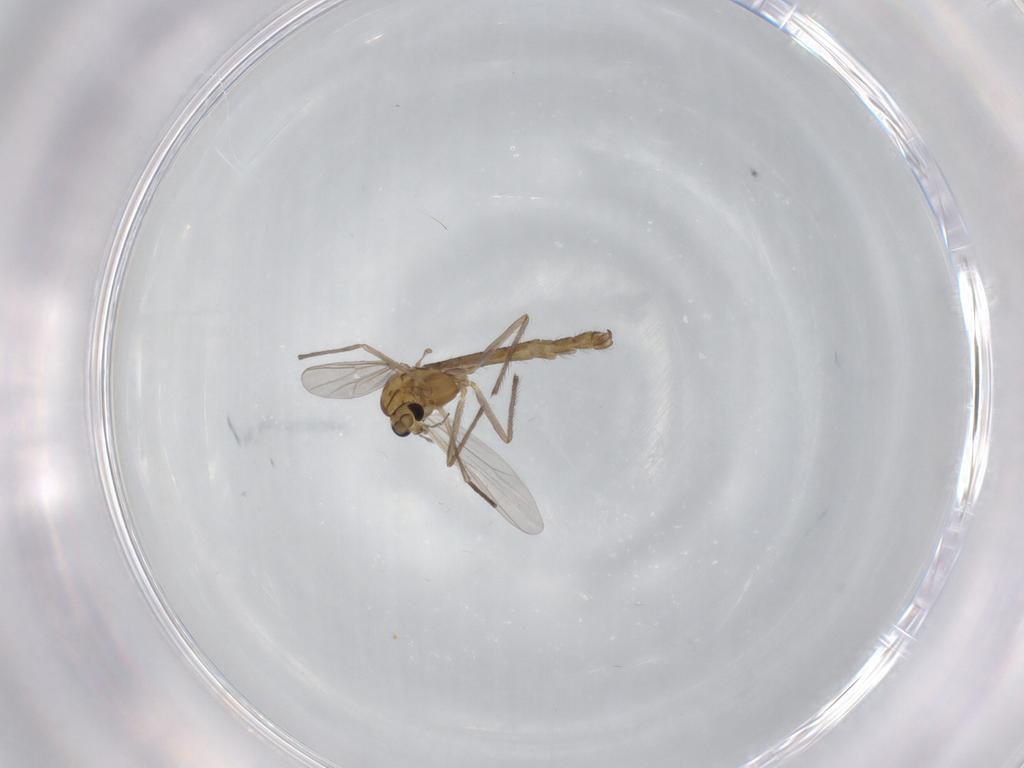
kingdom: Animalia
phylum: Arthropoda
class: Insecta
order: Diptera
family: Chironomidae
